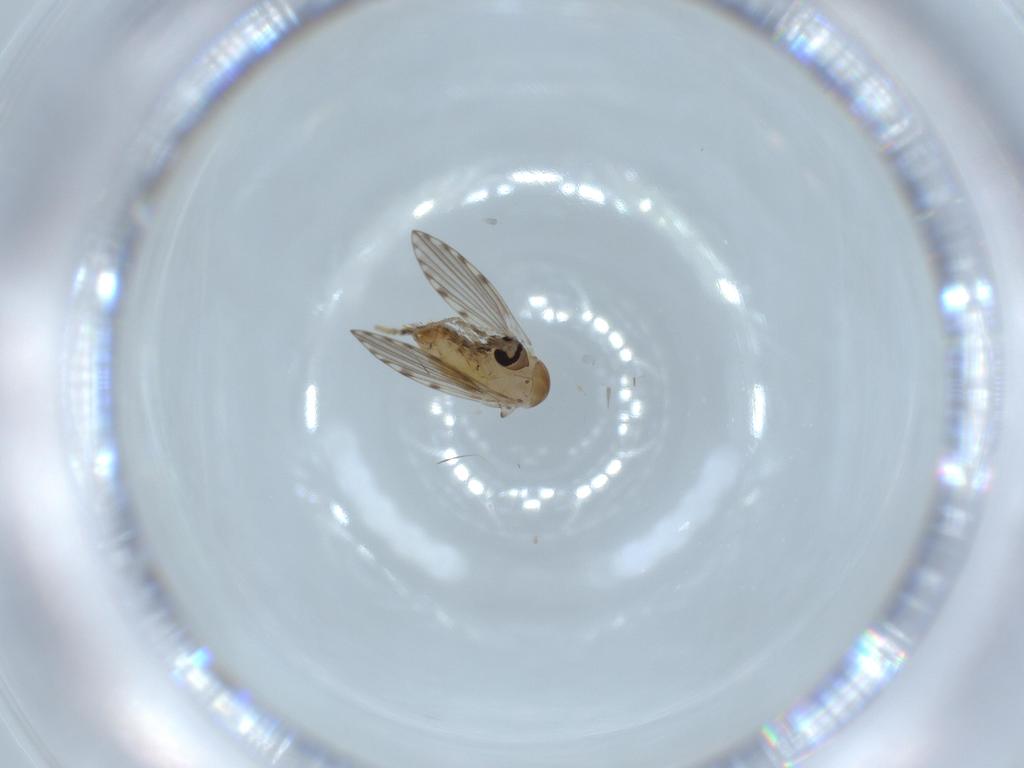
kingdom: Animalia
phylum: Arthropoda
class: Insecta
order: Diptera
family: Psychodidae
